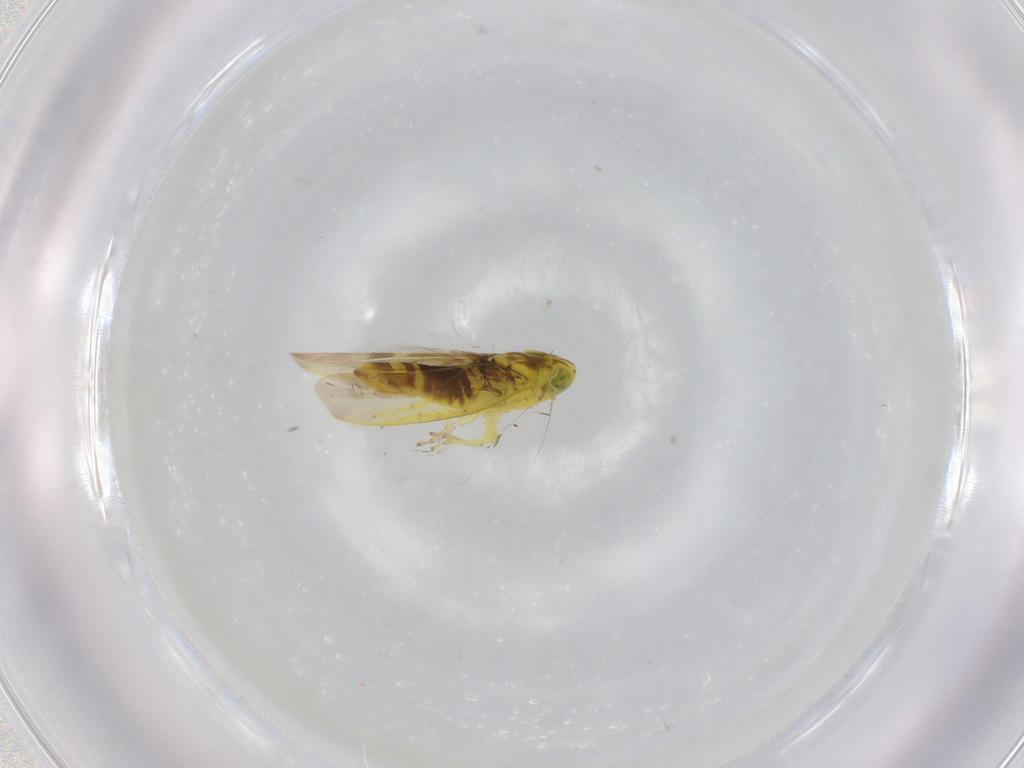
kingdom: Animalia
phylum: Arthropoda
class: Insecta
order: Hemiptera
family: Cicadellidae
